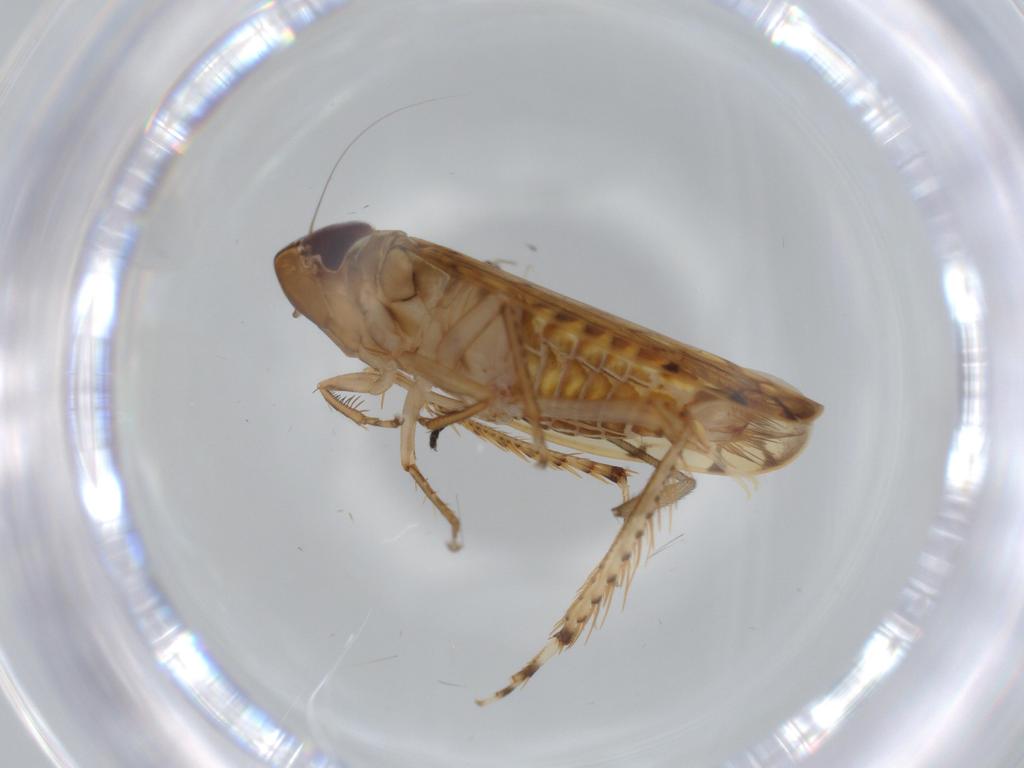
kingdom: Animalia
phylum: Arthropoda
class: Insecta
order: Hemiptera
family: Cicadellidae
